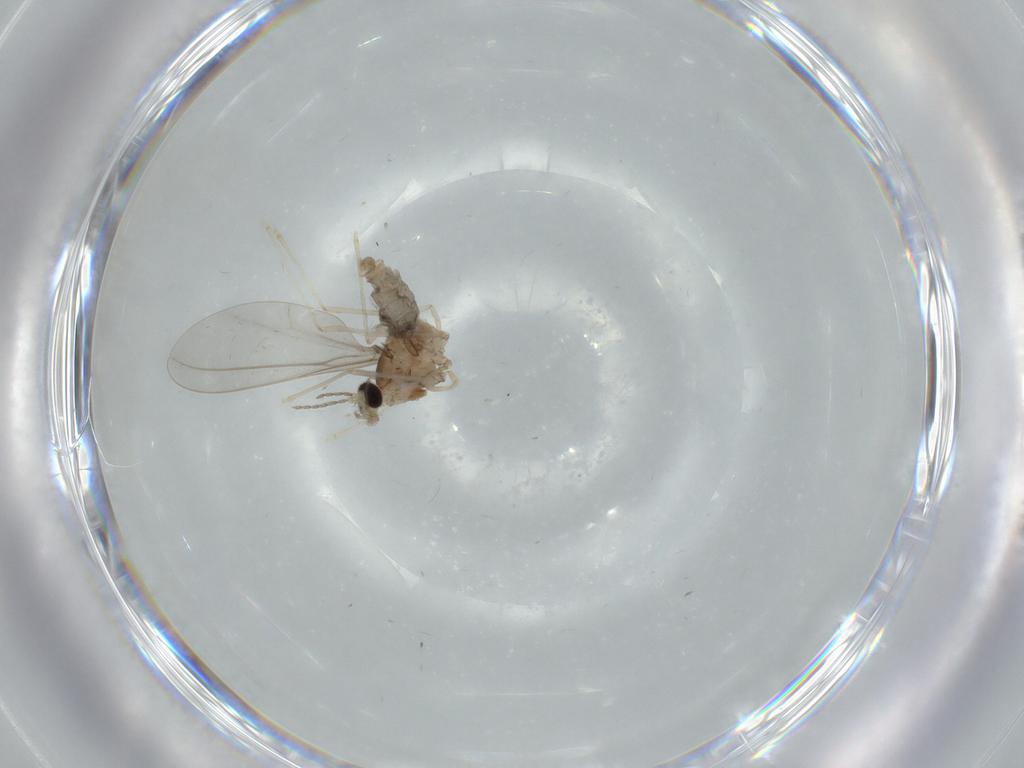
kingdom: Animalia
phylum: Arthropoda
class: Insecta
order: Diptera
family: Cecidomyiidae
